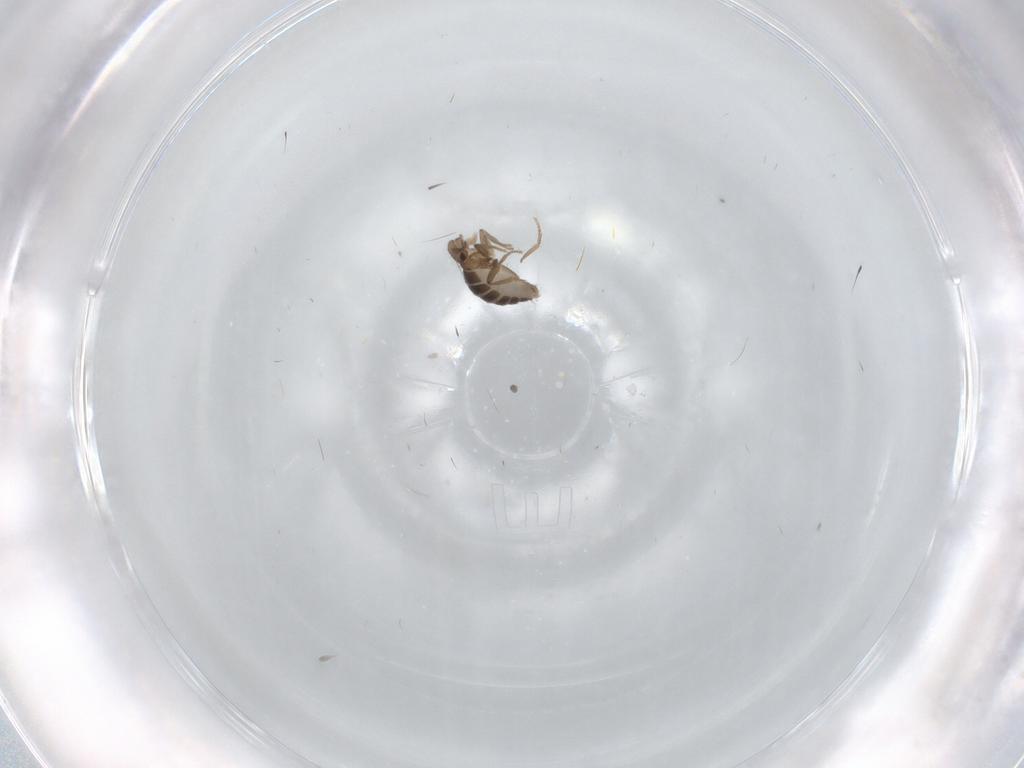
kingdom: Animalia
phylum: Arthropoda
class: Insecta
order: Diptera
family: Phoridae
